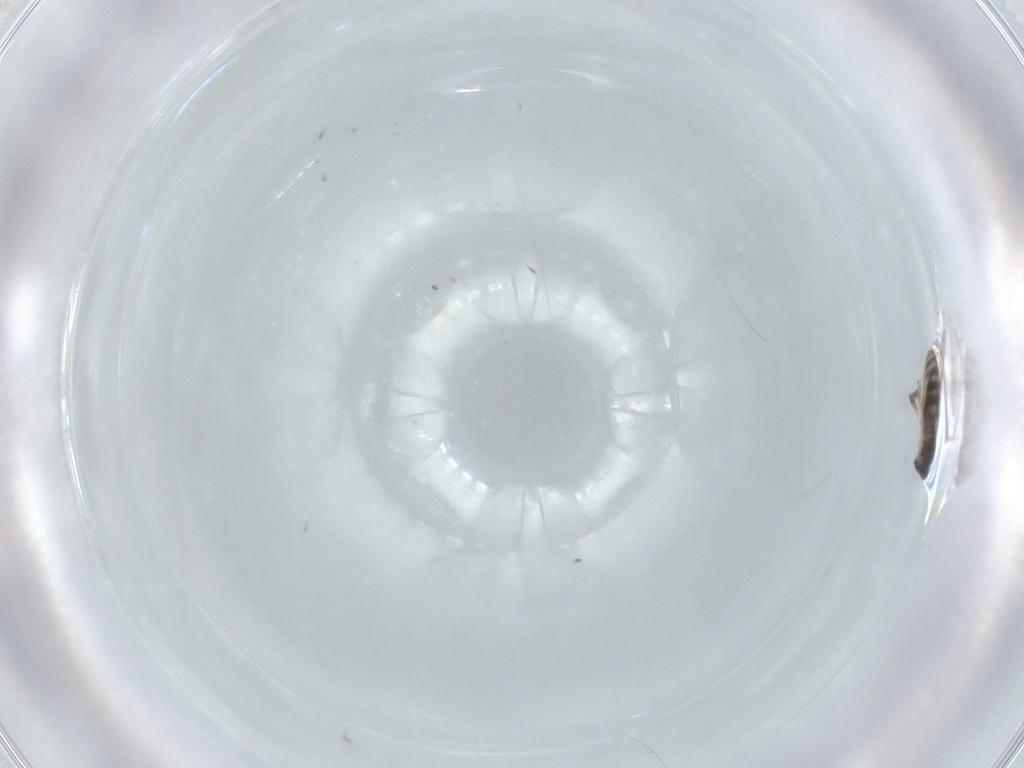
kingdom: Animalia
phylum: Arthropoda
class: Insecta
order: Diptera
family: Phoridae
